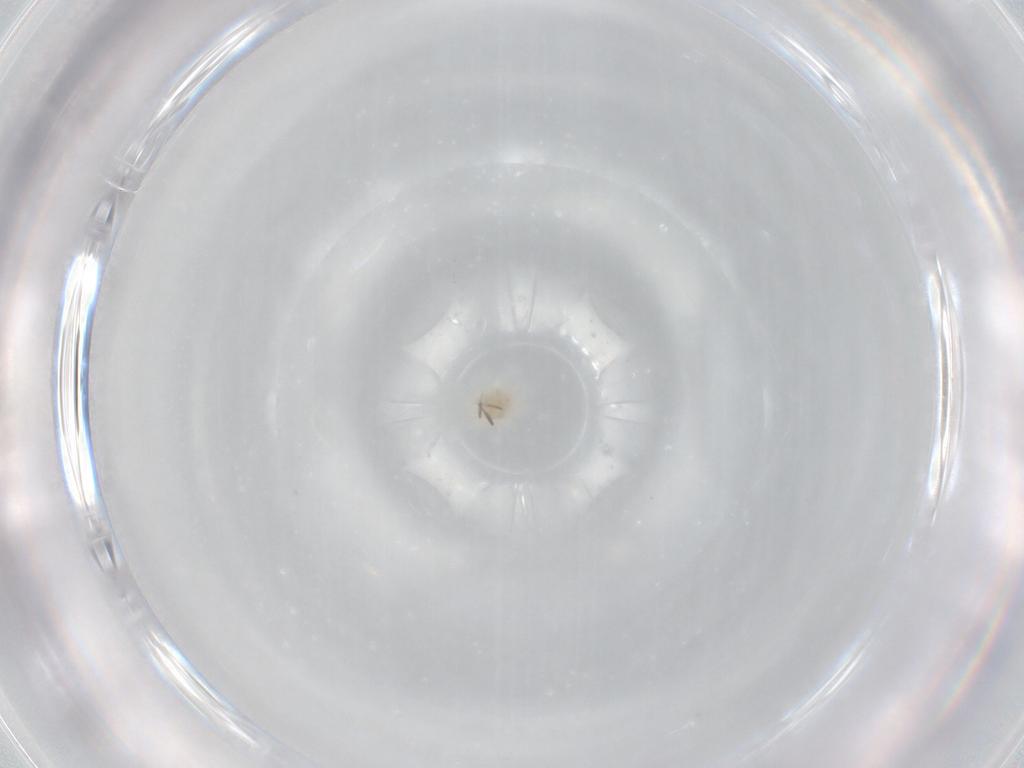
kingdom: Animalia
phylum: Arthropoda
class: Arachnida
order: Trombidiformes
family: Anystidae
